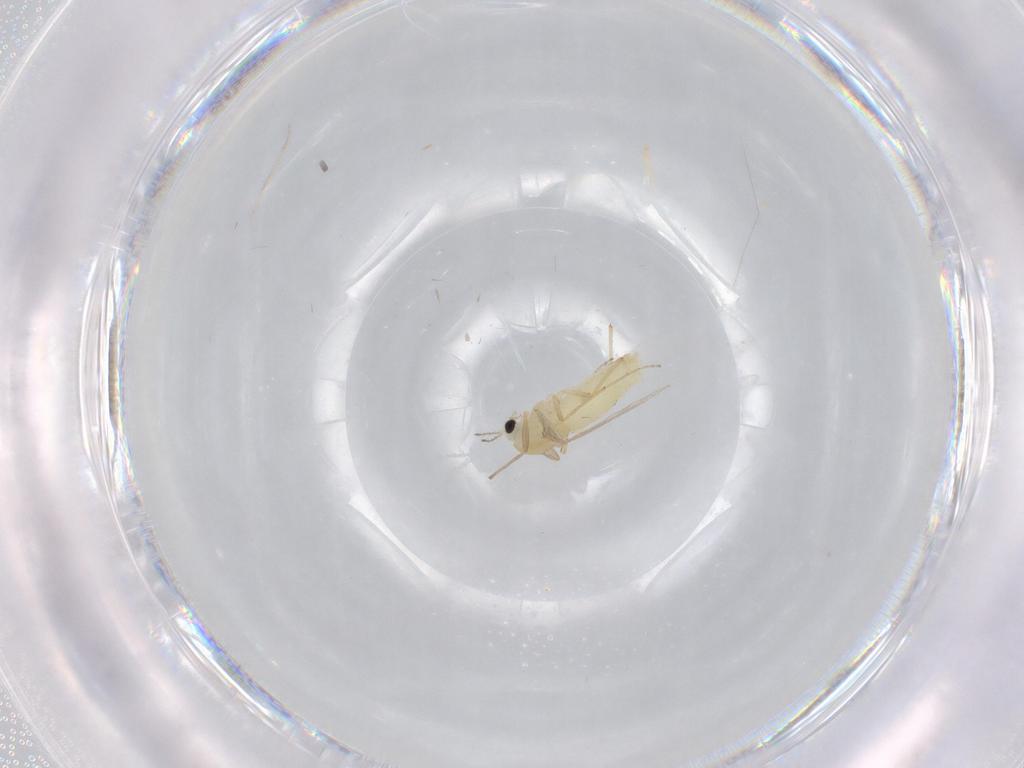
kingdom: Animalia
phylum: Arthropoda
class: Insecta
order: Diptera
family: Chironomidae
